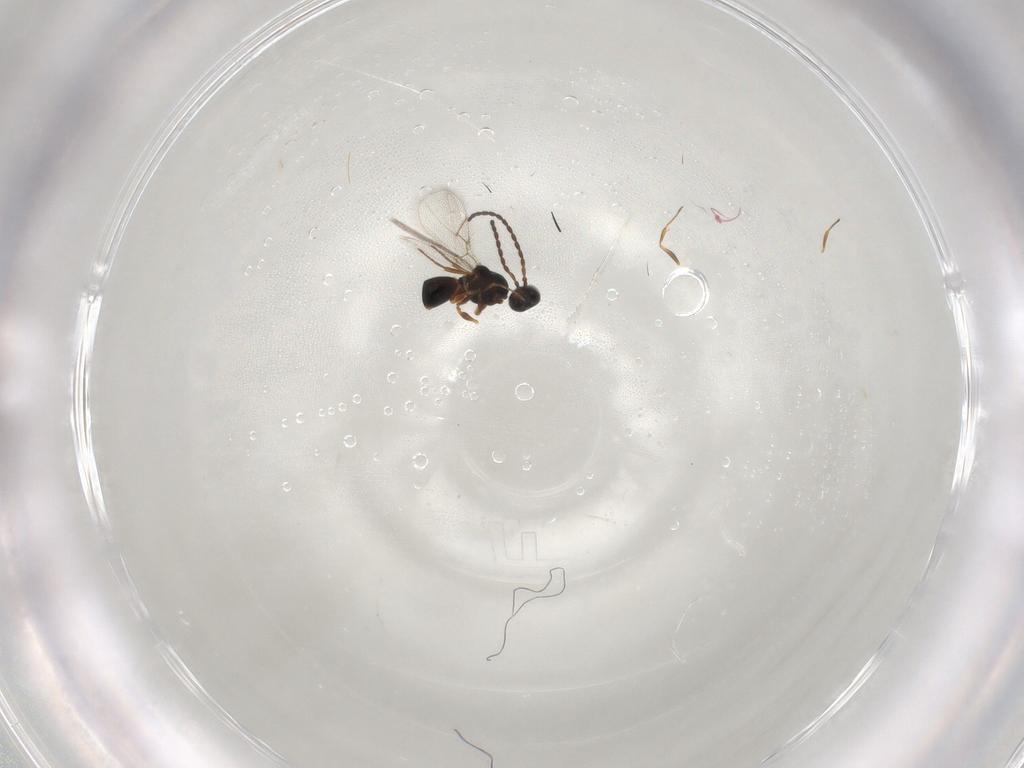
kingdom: Animalia
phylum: Arthropoda
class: Insecta
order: Hymenoptera
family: Figitidae
